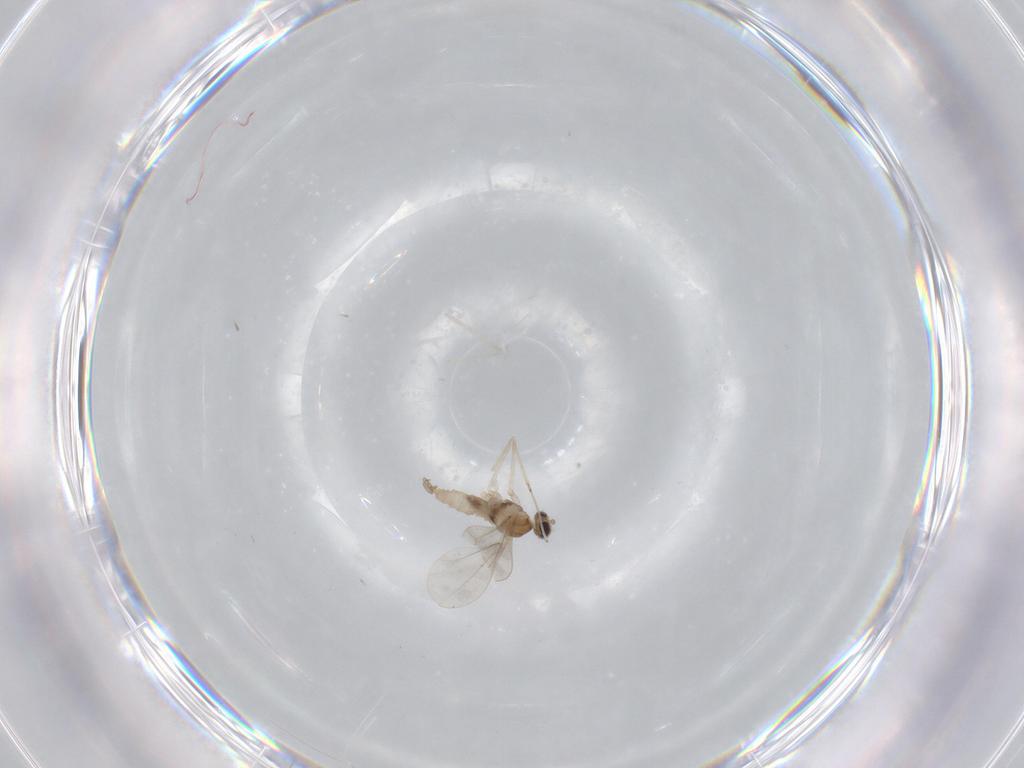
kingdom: Animalia
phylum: Arthropoda
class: Insecta
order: Diptera
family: Cecidomyiidae
